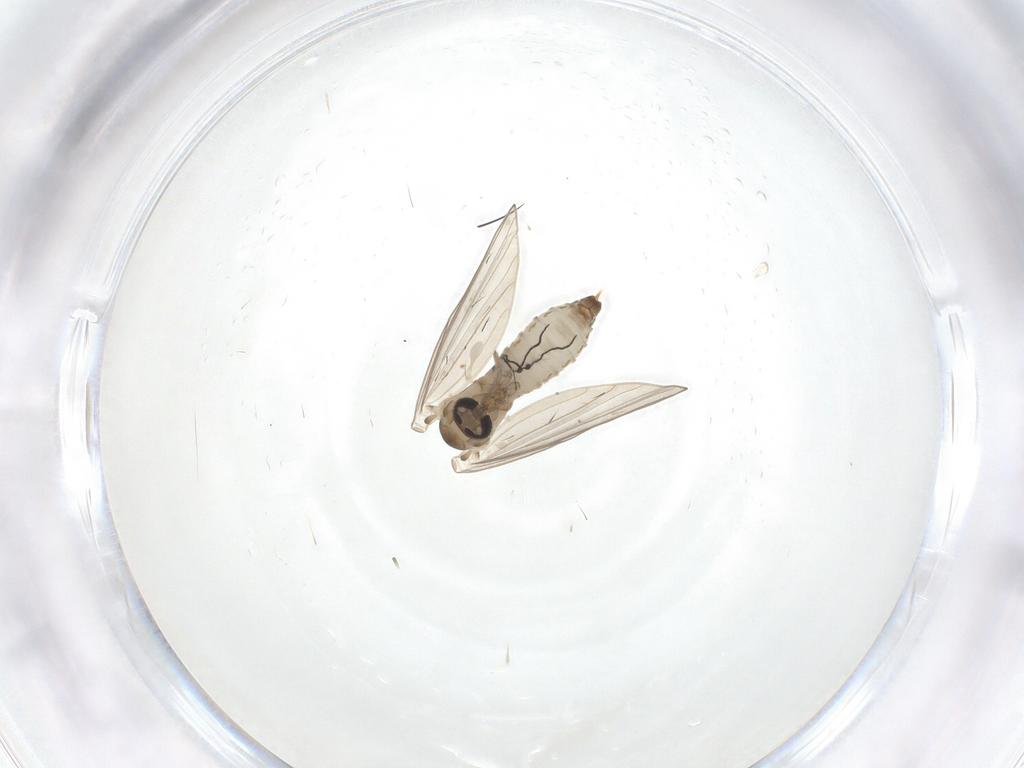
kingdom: Animalia
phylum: Arthropoda
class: Insecta
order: Diptera
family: Psychodidae
